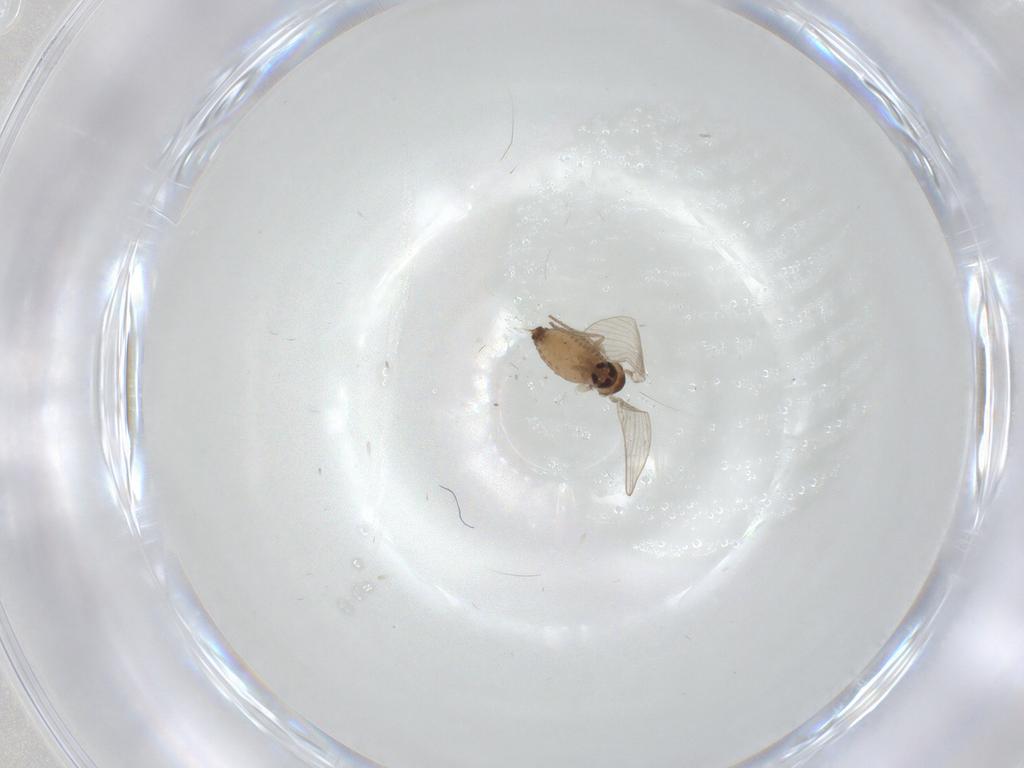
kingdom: Animalia
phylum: Arthropoda
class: Insecta
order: Diptera
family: Psychodidae
